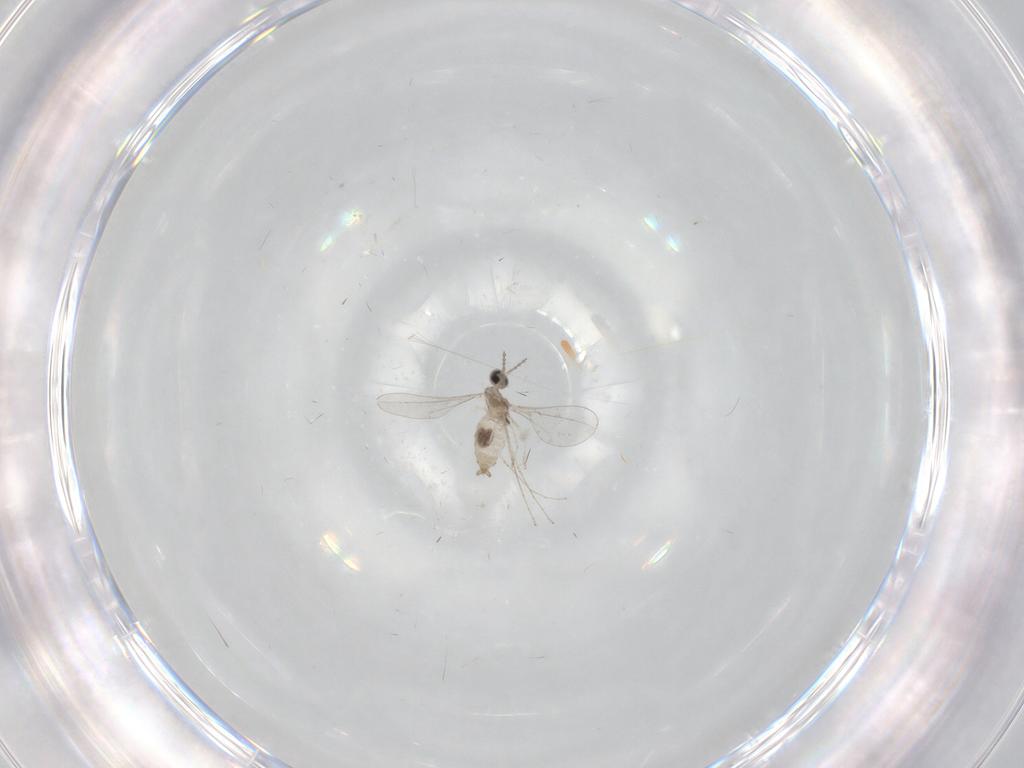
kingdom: Animalia
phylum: Arthropoda
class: Insecta
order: Diptera
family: Cecidomyiidae
